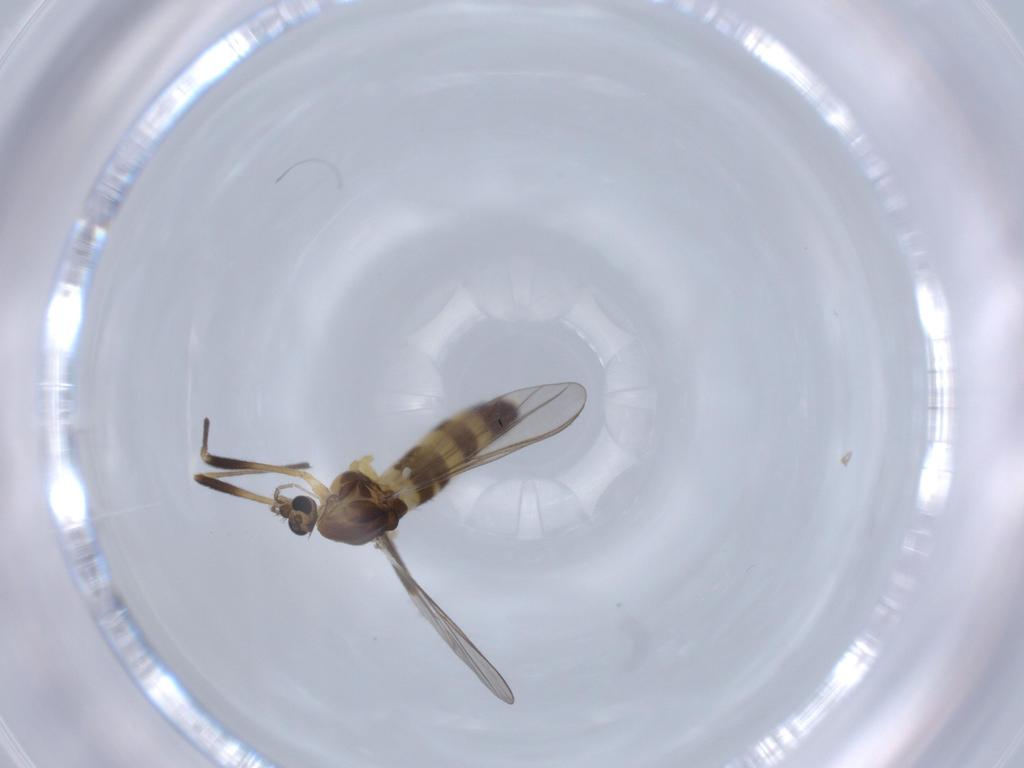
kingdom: Animalia
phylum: Arthropoda
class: Insecta
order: Diptera
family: Chironomidae
